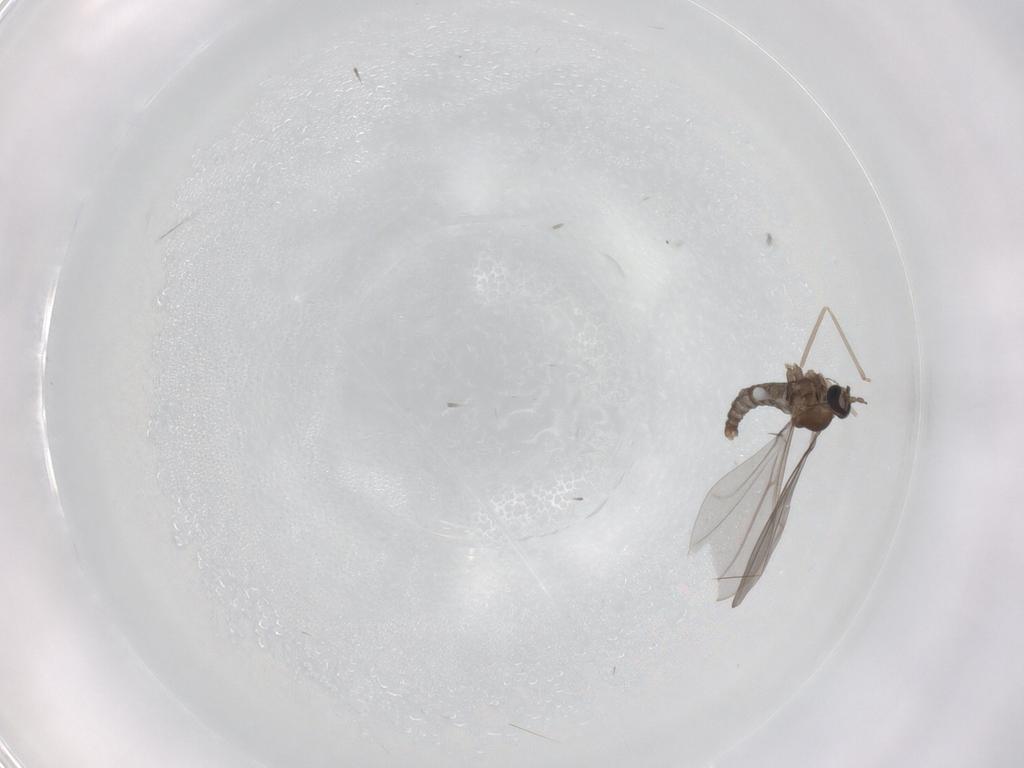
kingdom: Animalia
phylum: Arthropoda
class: Insecta
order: Diptera
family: Cecidomyiidae
